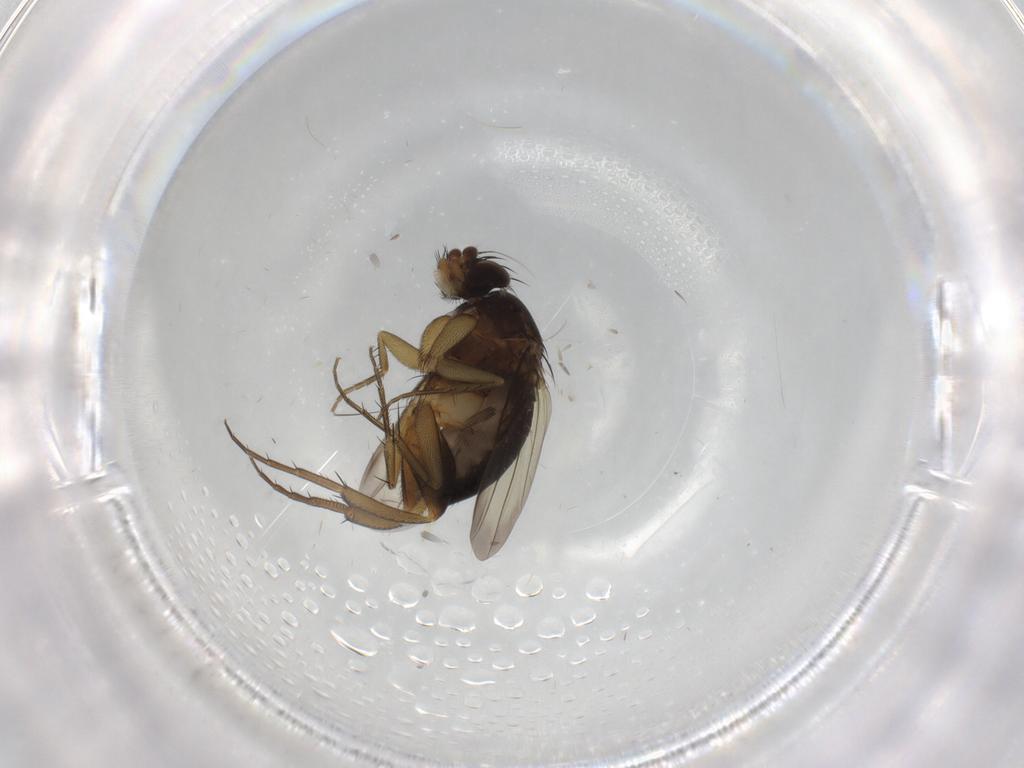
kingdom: Animalia
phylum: Arthropoda
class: Insecta
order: Diptera
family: Phoridae
